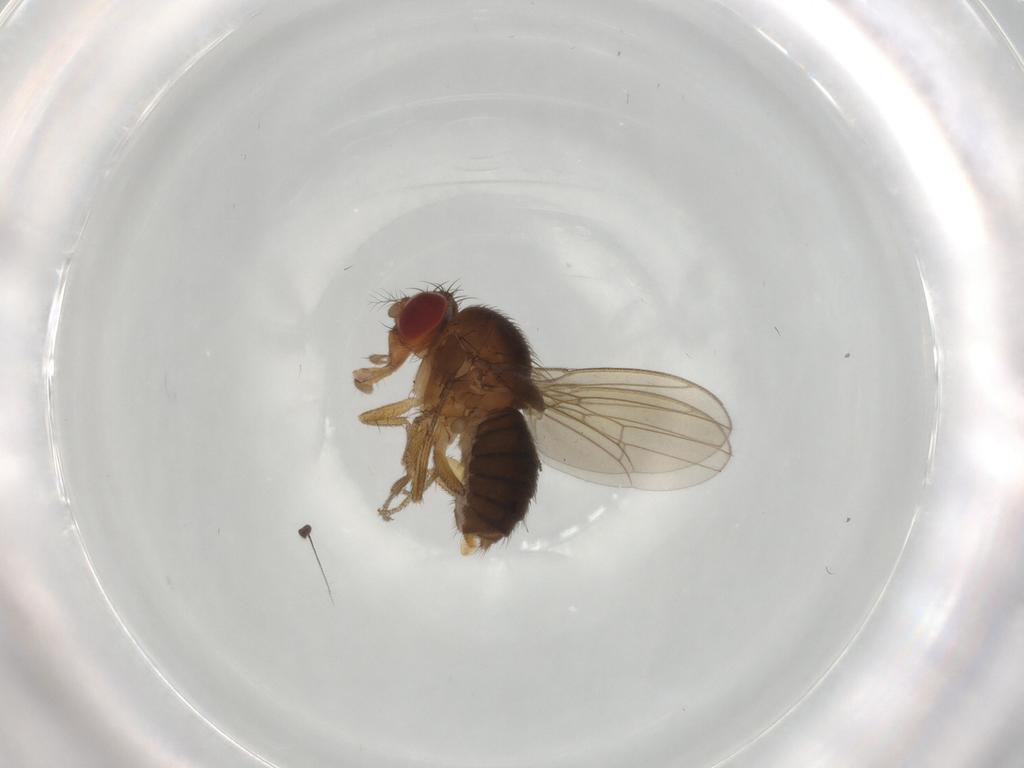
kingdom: Animalia
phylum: Arthropoda
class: Insecta
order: Diptera
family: Drosophilidae
